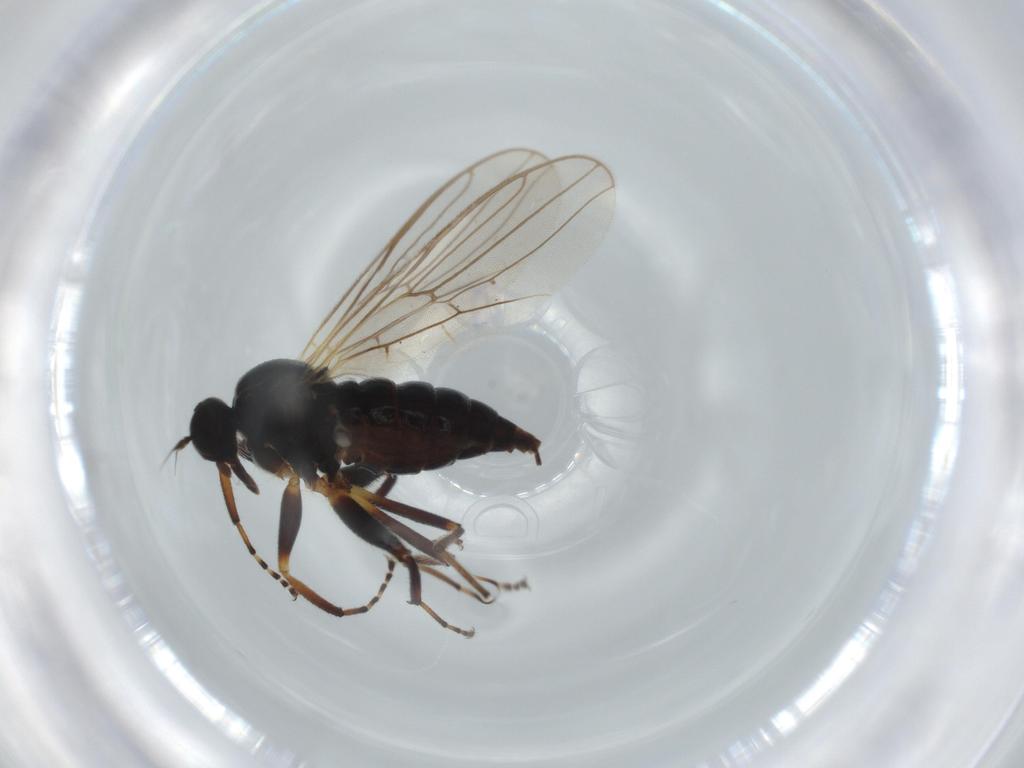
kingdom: Animalia
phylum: Arthropoda
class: Insecta
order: Diptera
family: Hybotidae
